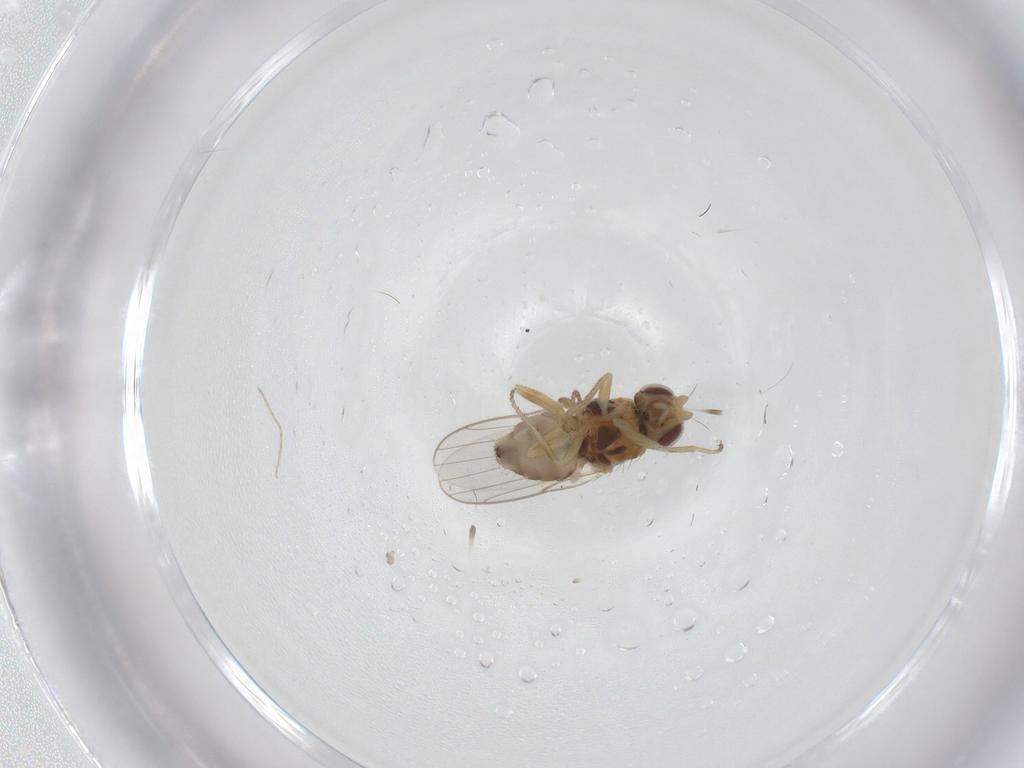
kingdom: Animalia
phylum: Arthropoda
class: Insecta
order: Diptera
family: Chloropidae
